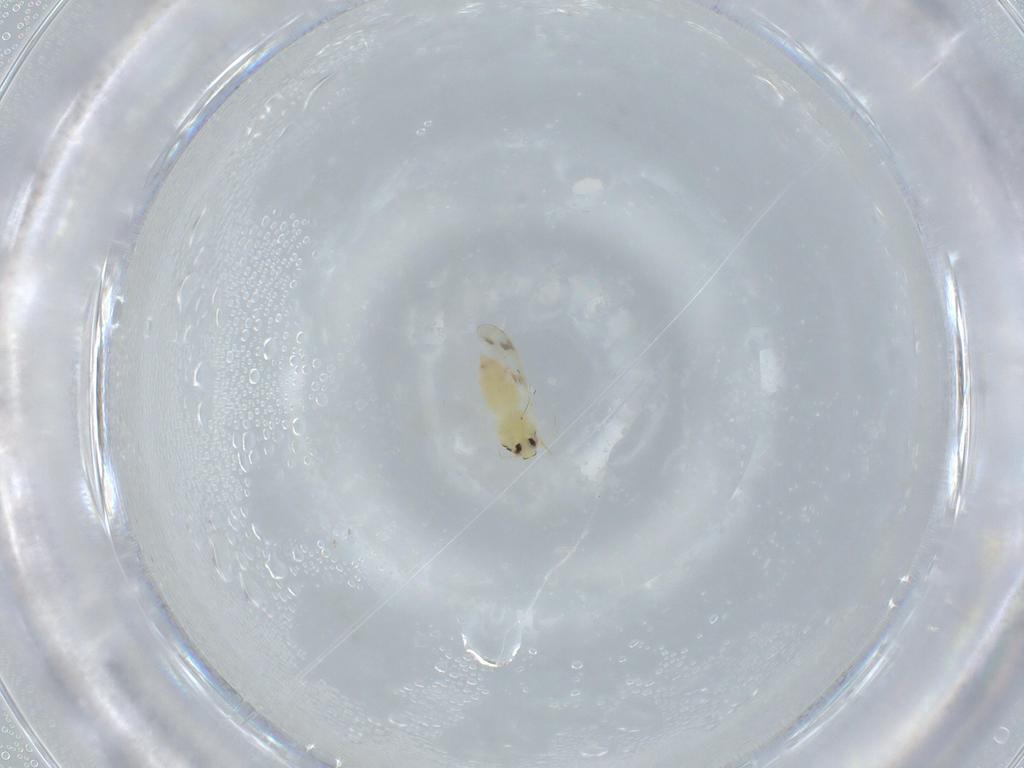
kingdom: Animalia
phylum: Arthropoda
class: Insecta
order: Hemiptera
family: Aleyrodidae
